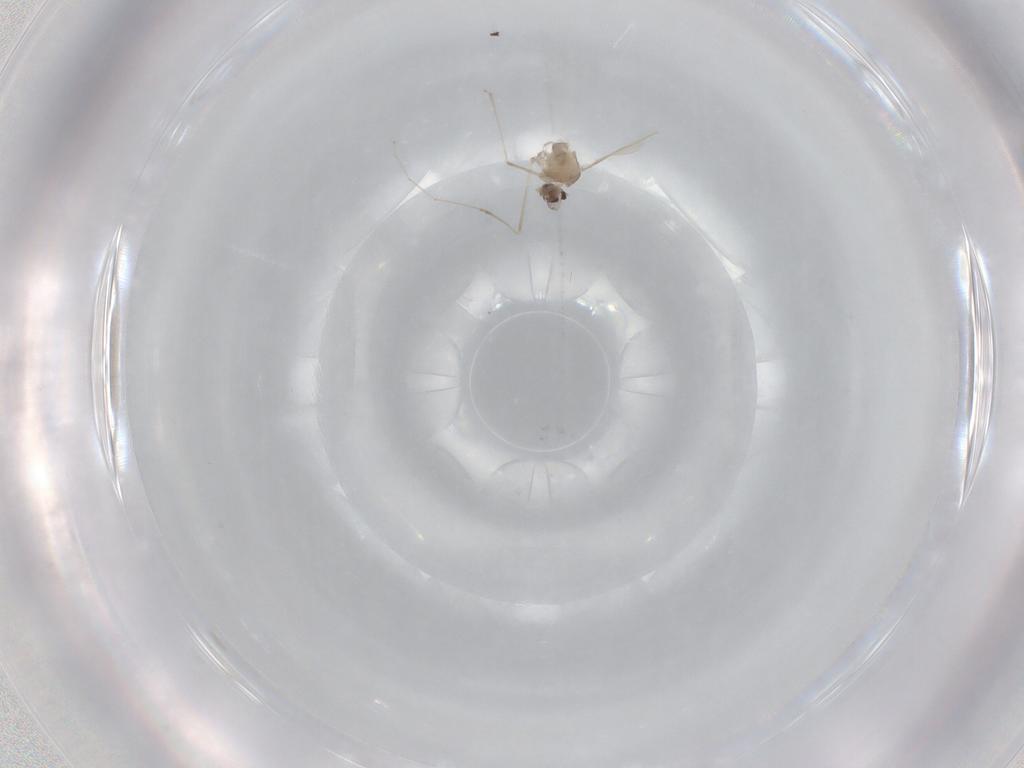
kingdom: Animalia
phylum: Arthropoda
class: Insecta
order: Diptera
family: Cecidomyiidae
